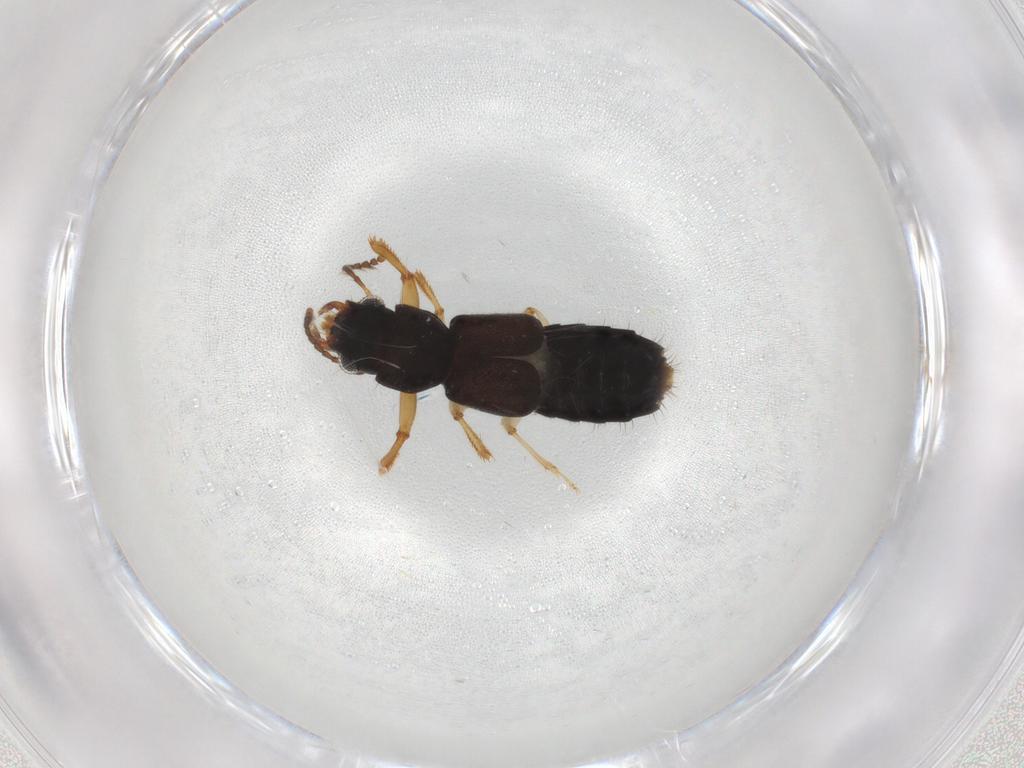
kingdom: Animalia
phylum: Arthropoda
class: Insecta
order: Coleoptera
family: Staphylinidae
